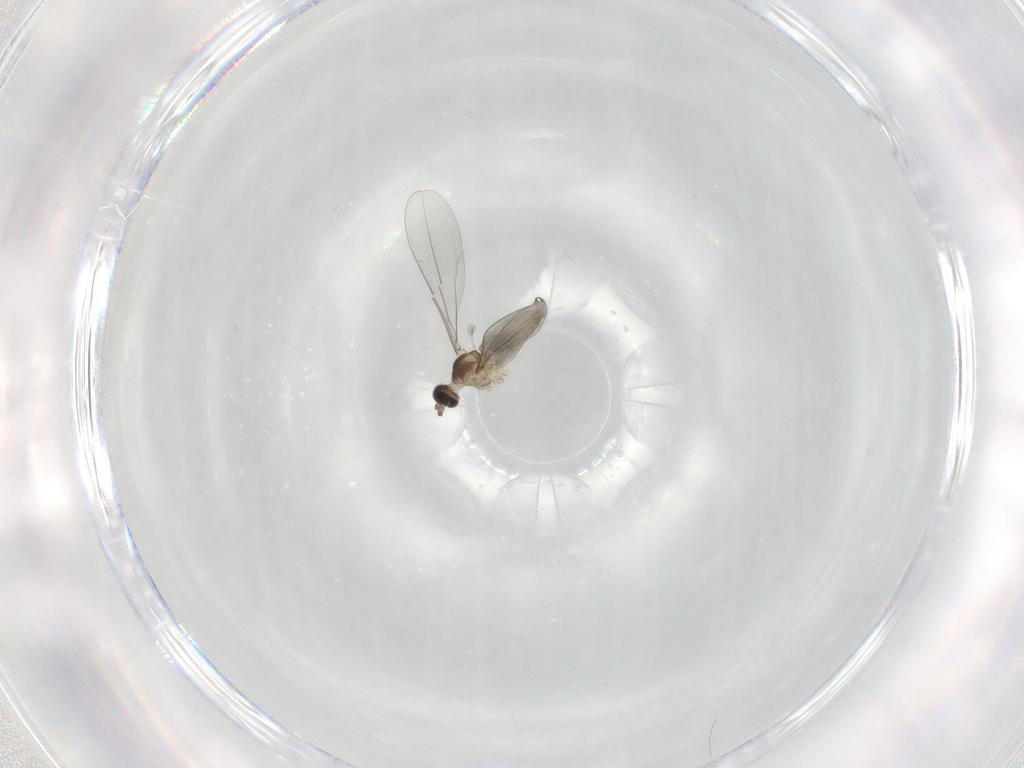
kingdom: Animalia
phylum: Arthropoda
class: Insecta
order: Diptera
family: Cecidomyiidae
